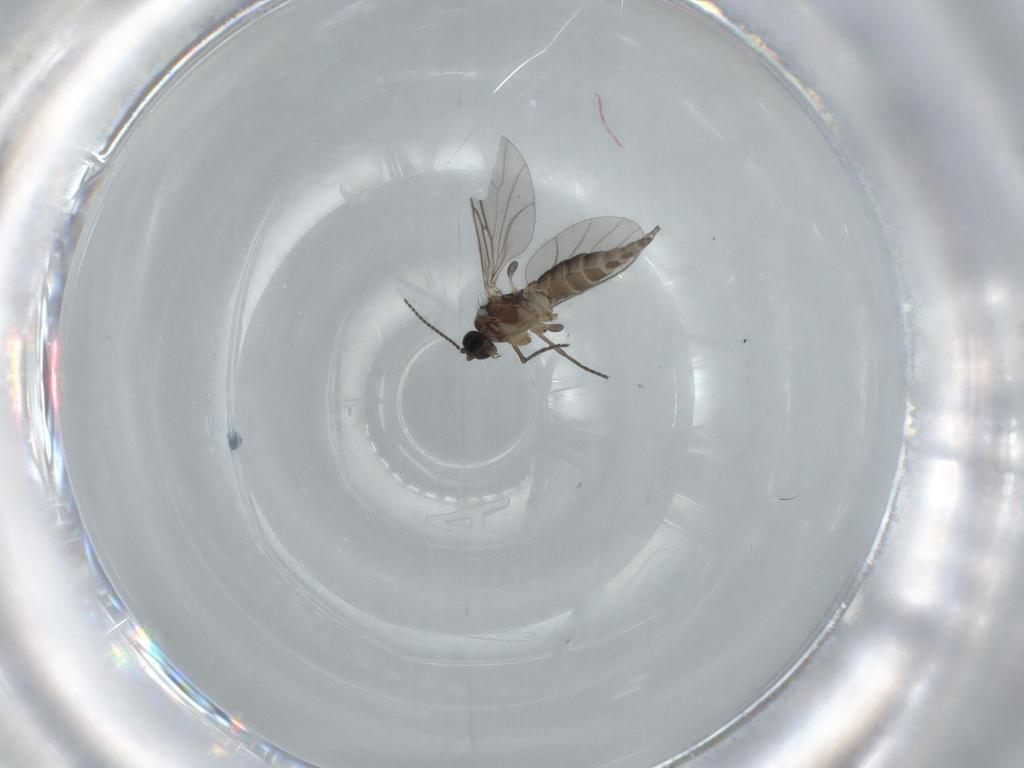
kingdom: Animalia
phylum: Arthropoda
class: Insecta
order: Diptera
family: Sciaridae
